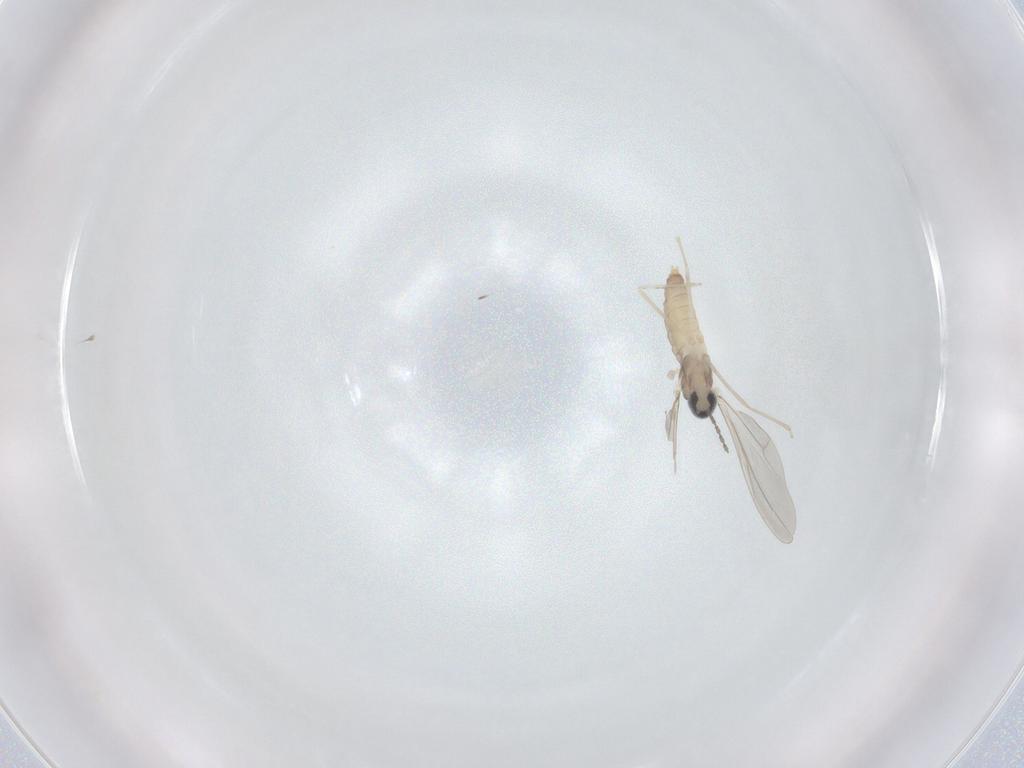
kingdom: Animalia
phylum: Arthropoda
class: Insecta
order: Diptera
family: Cecidomyiidae
